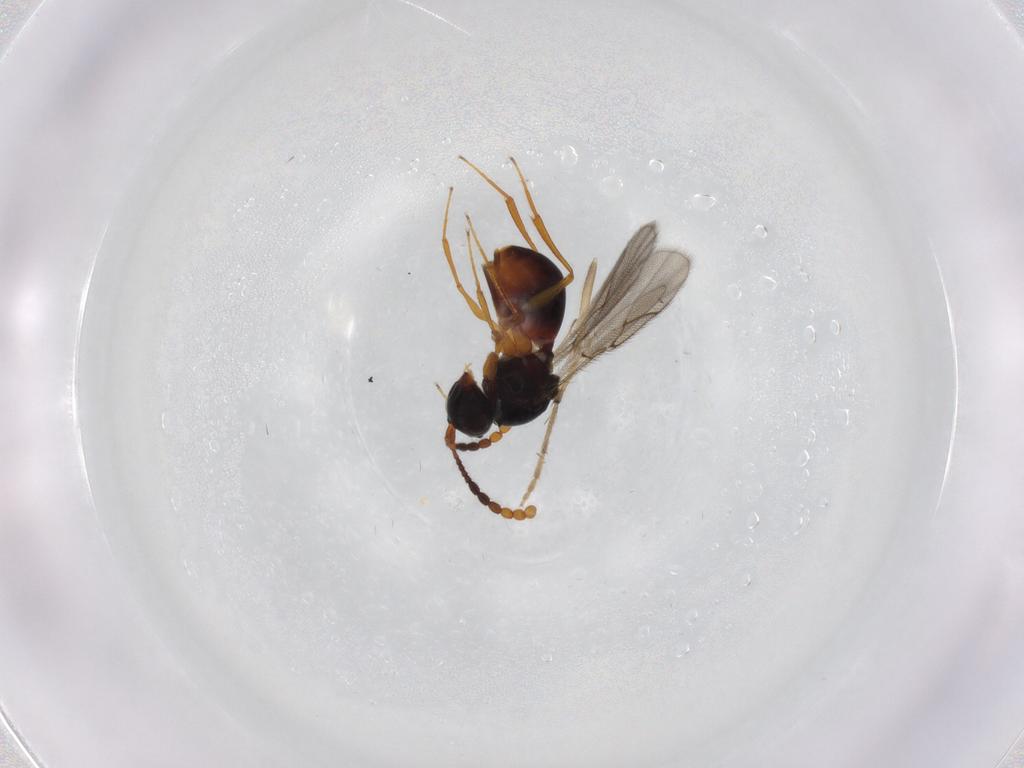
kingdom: Animalia
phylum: Arthropoda
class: Insecta
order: Hymenoptera
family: Figitidae
